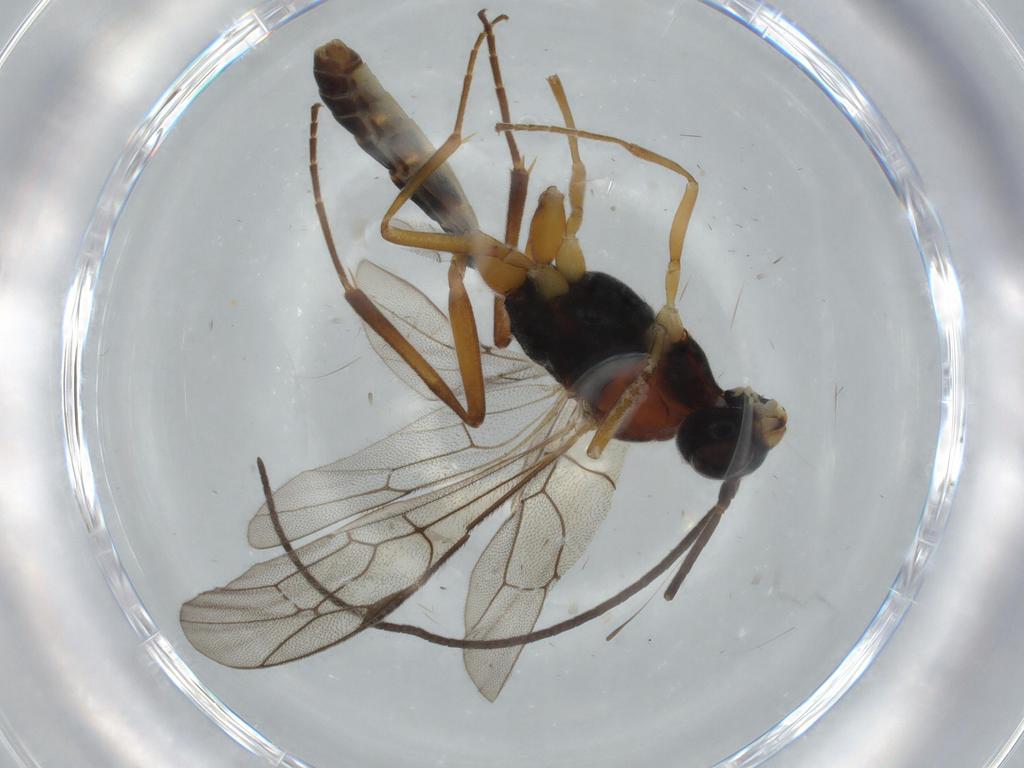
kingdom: Animalia
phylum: Arthropoda
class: Insecta
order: Hymenoptera
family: Ichneumonidae
